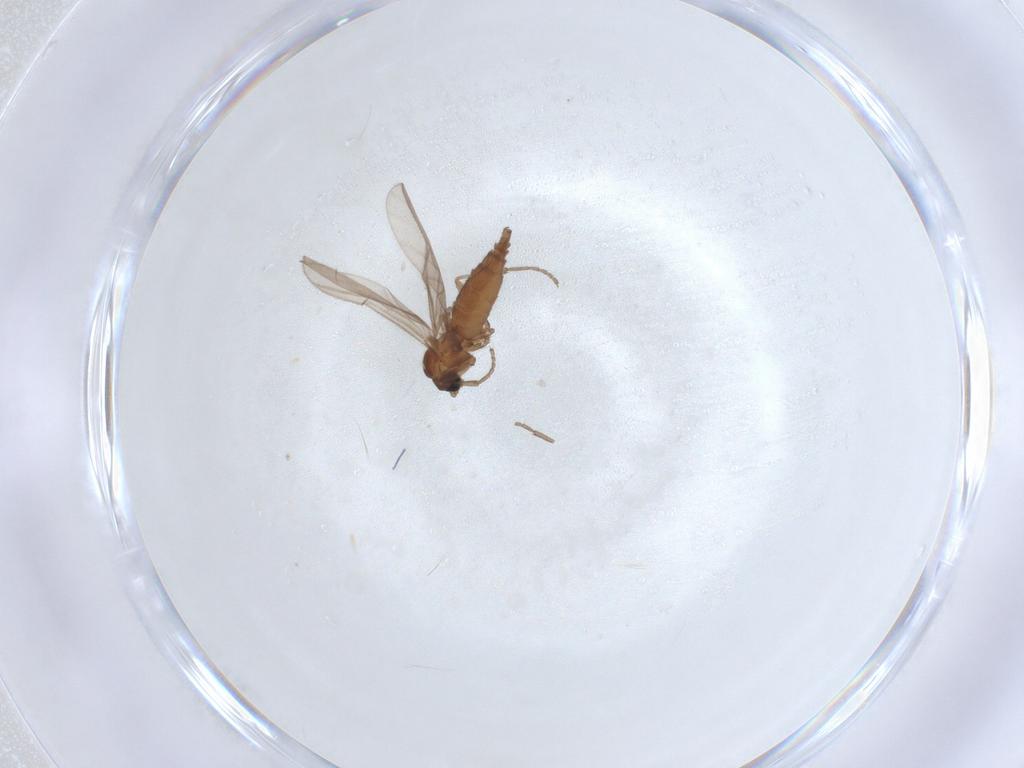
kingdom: Animalia
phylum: Arthropoda
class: Insecta
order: Diptera
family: Sciaridae
